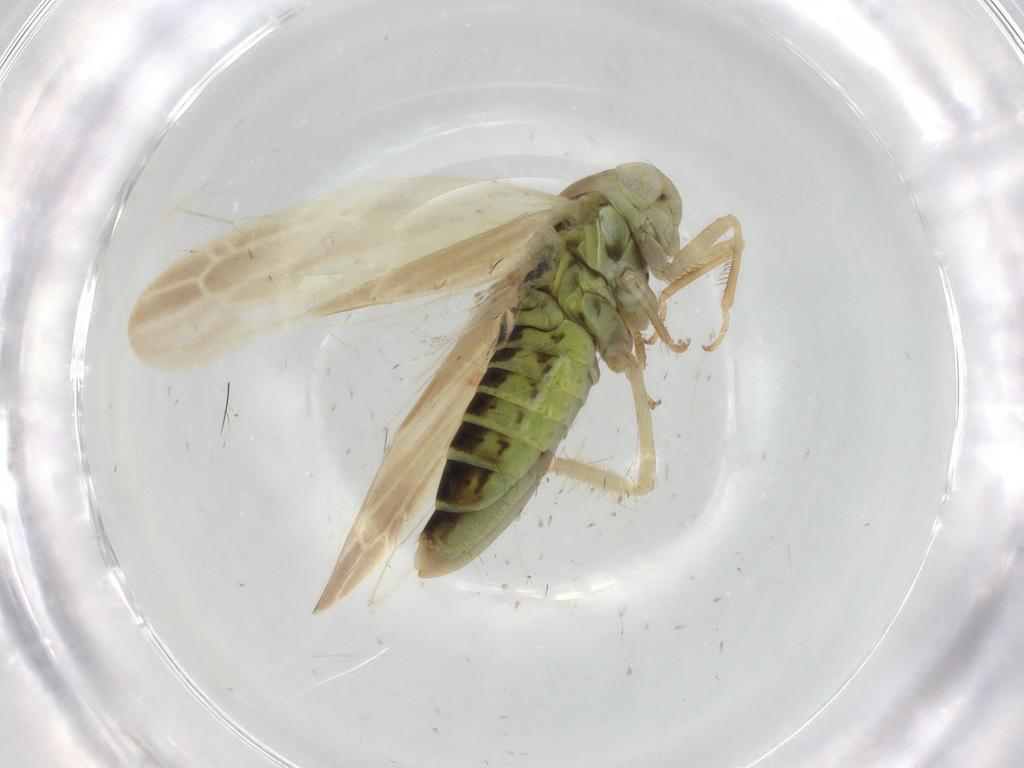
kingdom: Animalia
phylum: Arthropoda
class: Insecta
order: Hemiptera
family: Cicadellidae
